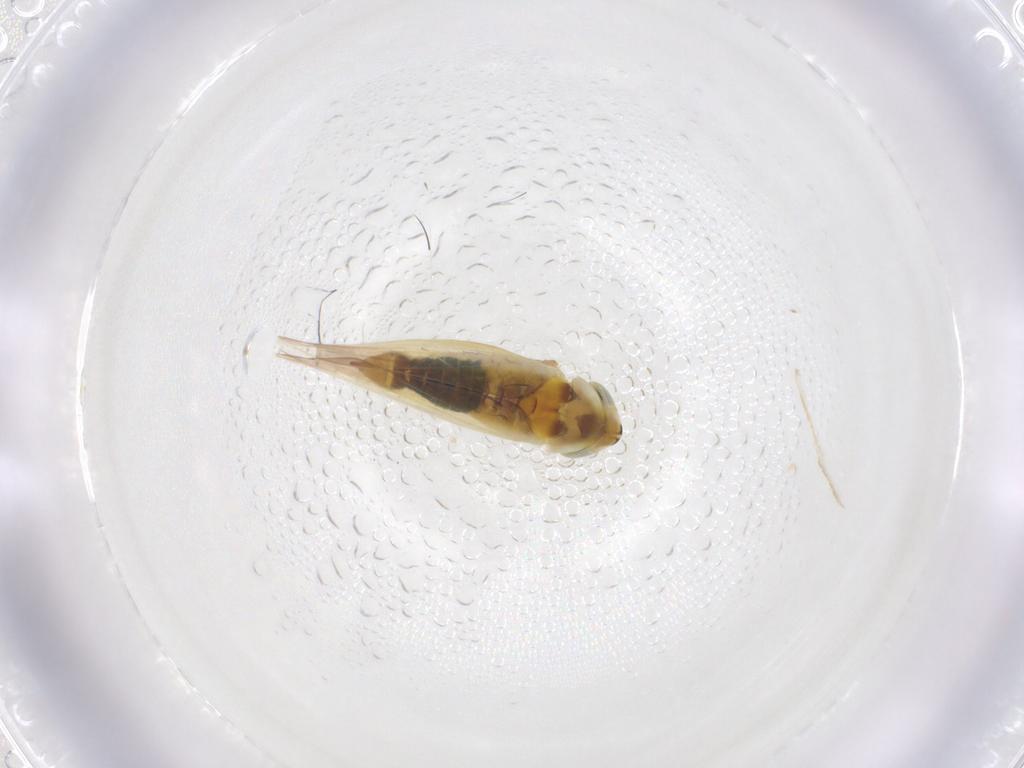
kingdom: Animalia
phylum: Arthropoda
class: Insecta
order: Hemiptera
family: Cicadellidae
